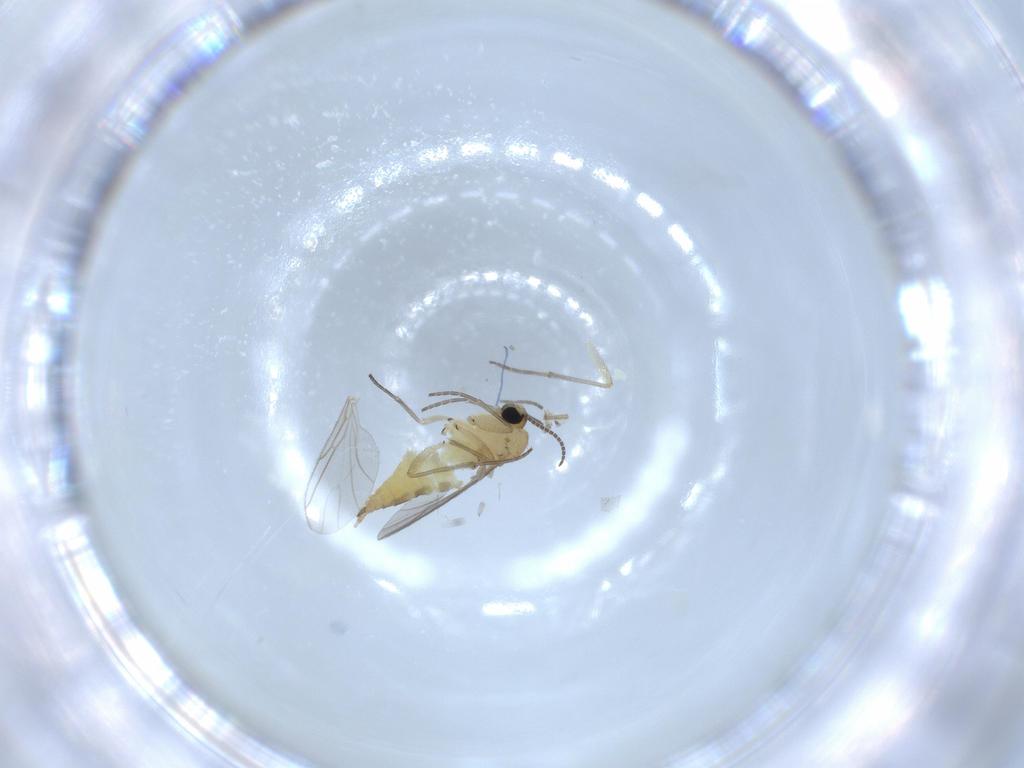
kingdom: Animalia
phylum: Arthropoda
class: Insecta
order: Diptera
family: Sciaridae
